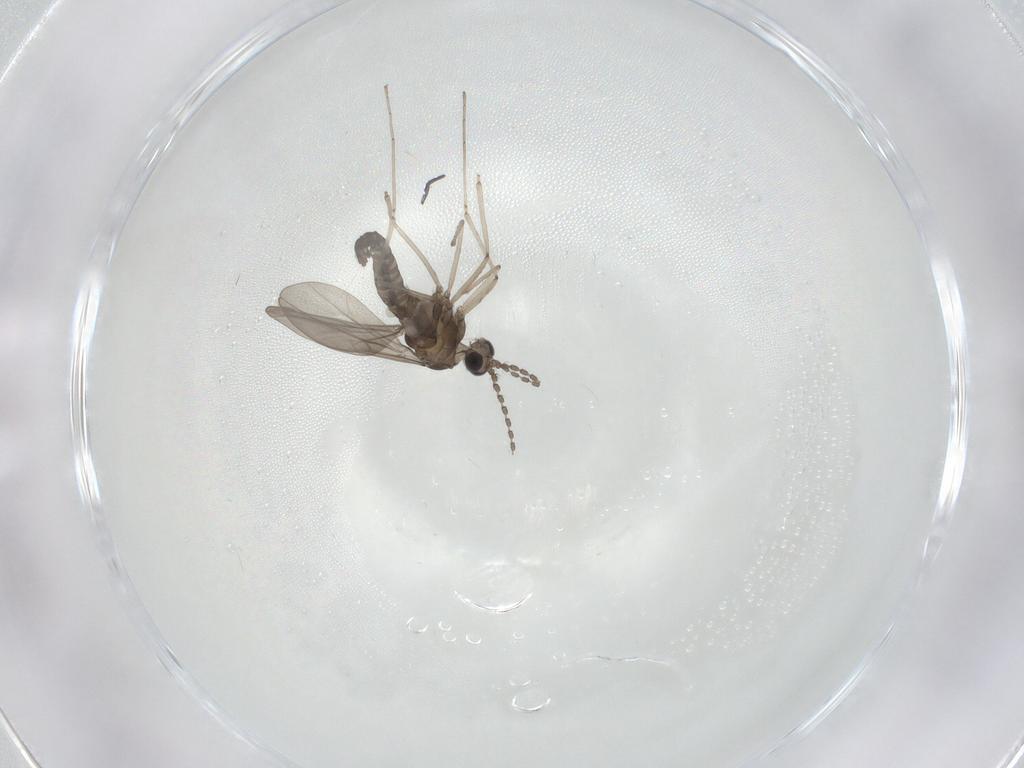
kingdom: Animalia
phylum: Arthropoda
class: Insecta
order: Diptera
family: Cecidomyiidae
